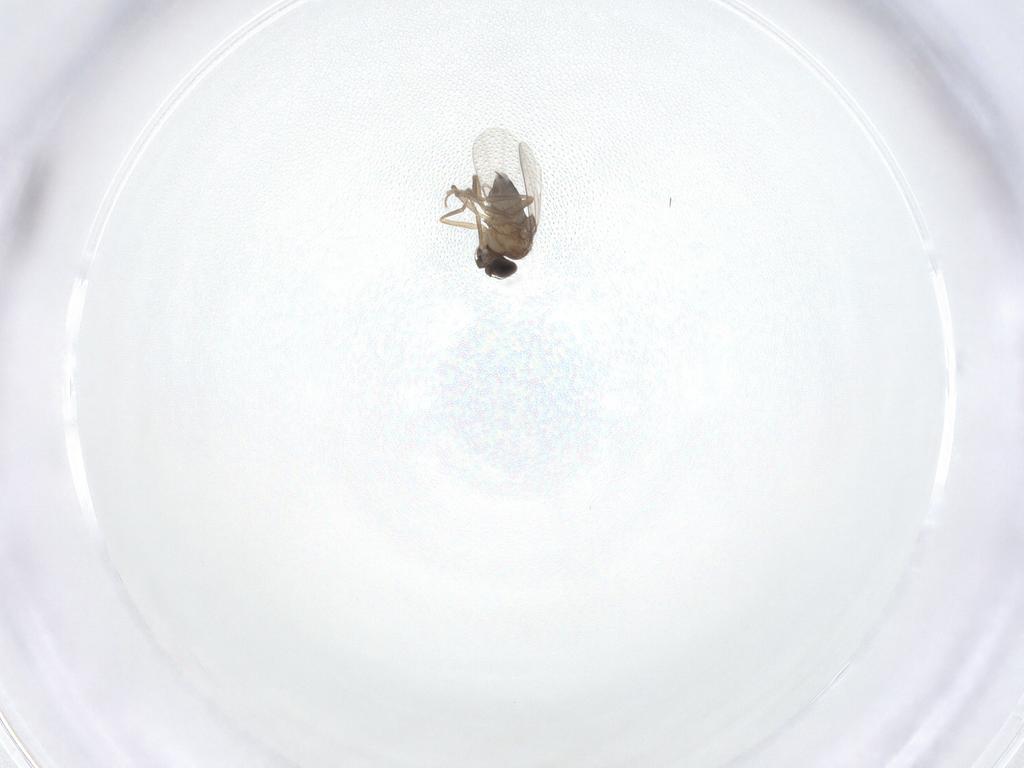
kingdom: Animalia
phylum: Arthropoda
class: Insecta
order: Diptera
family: Phoridae
